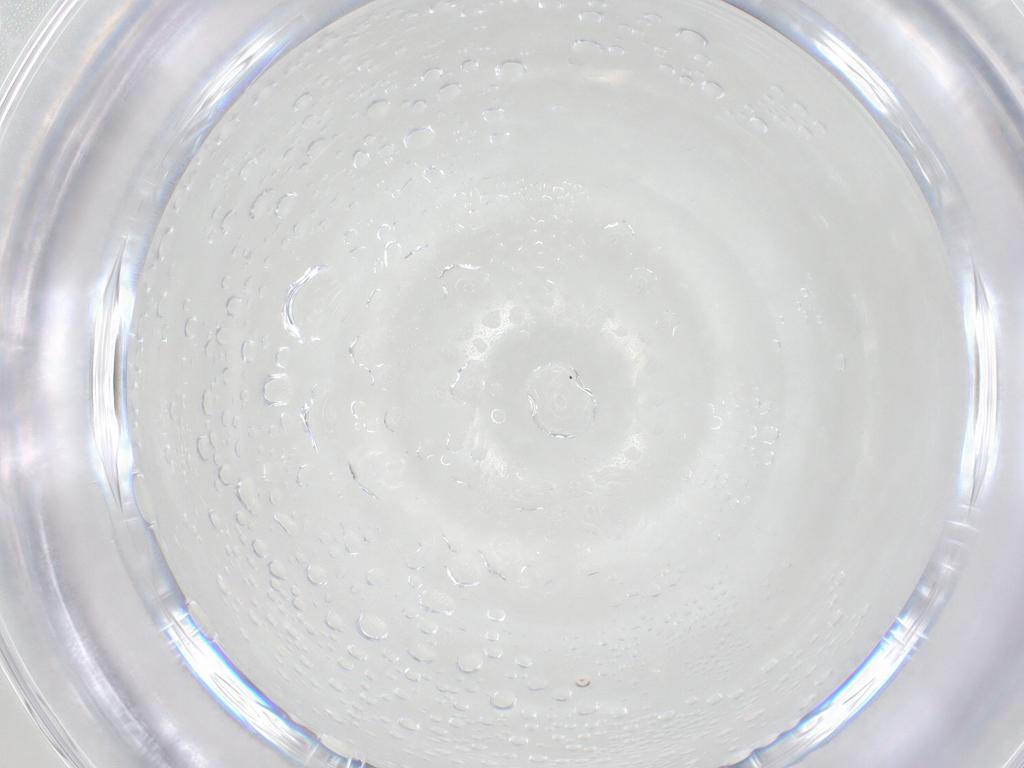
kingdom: Animalia
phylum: Arthropoda
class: Insecta
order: Diptera
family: Limoniidae
